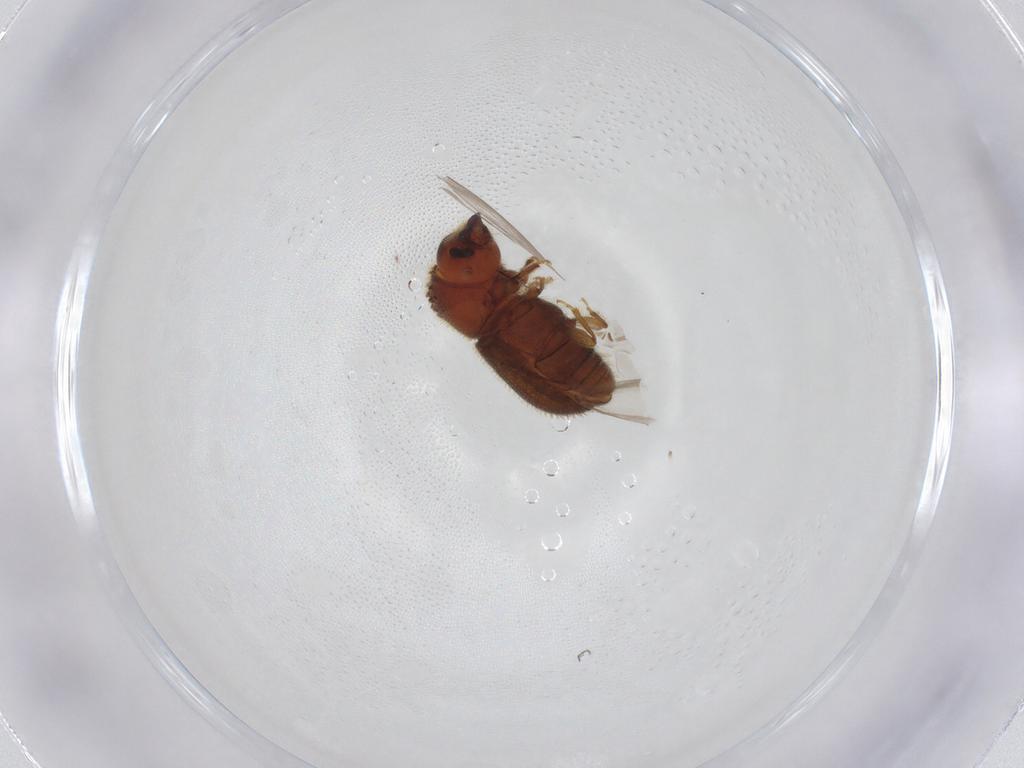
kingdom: Animalia
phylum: Arthropoda
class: Insecta
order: Coleoptera
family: Curculionidae
